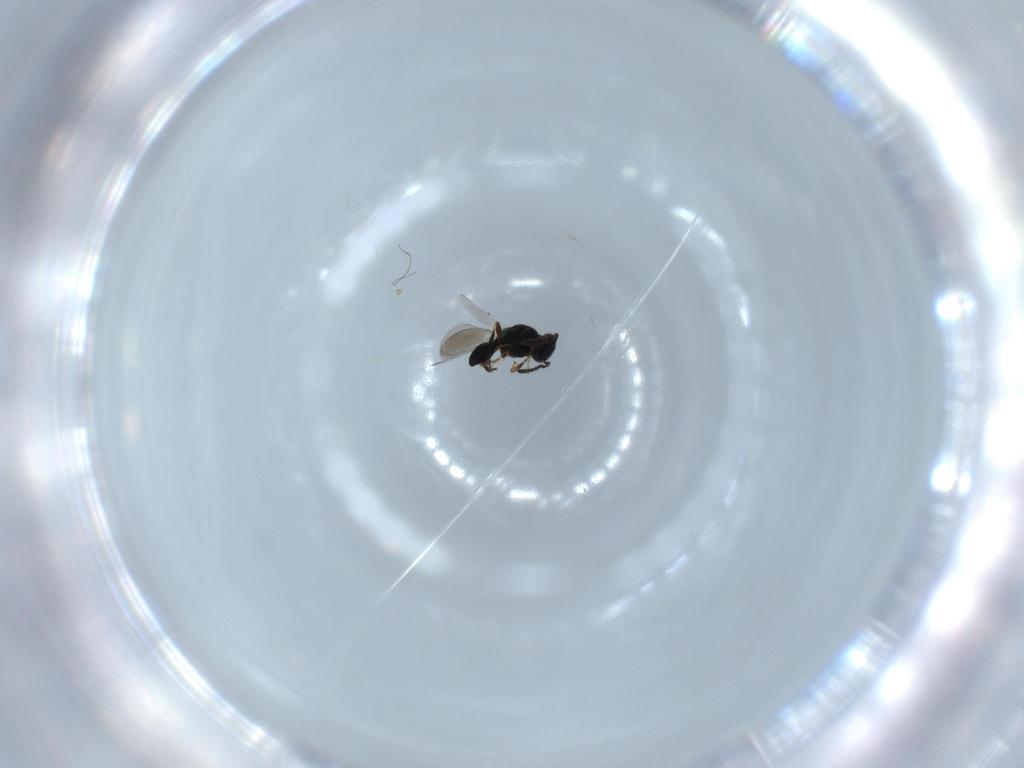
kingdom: Animalia
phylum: Arthropoda
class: Insecta
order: Hymenoptera
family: Platygastridae
